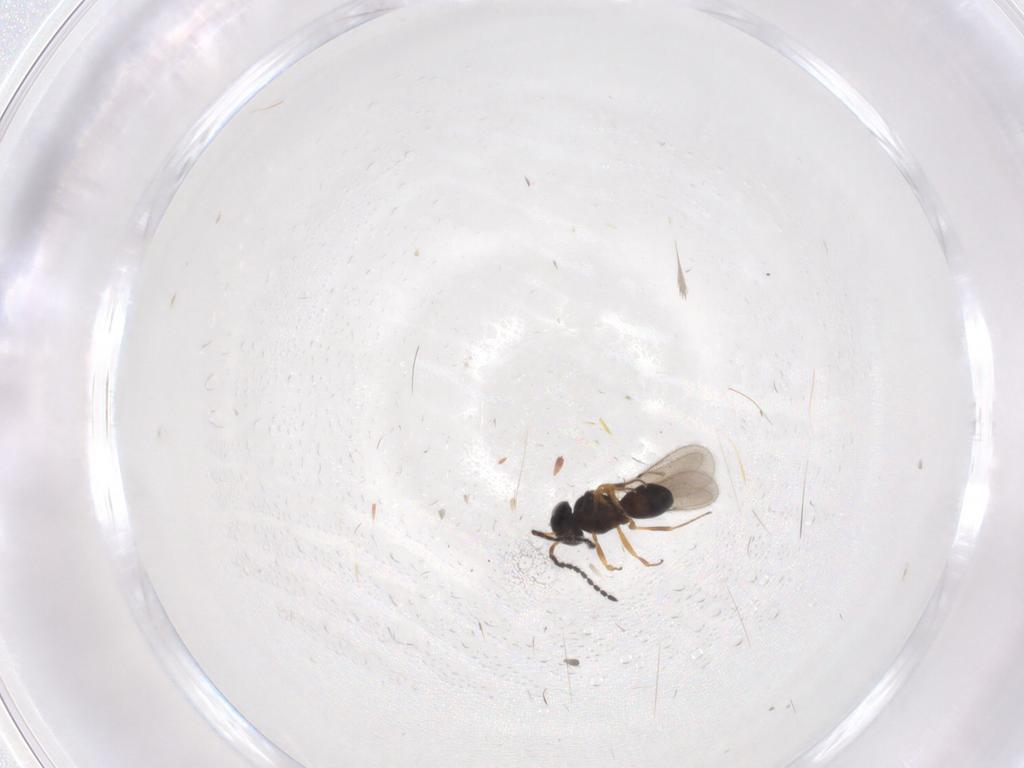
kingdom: Animalia
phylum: Arthropoda
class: Insecta
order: Hymenoptera
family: Scelionidae
